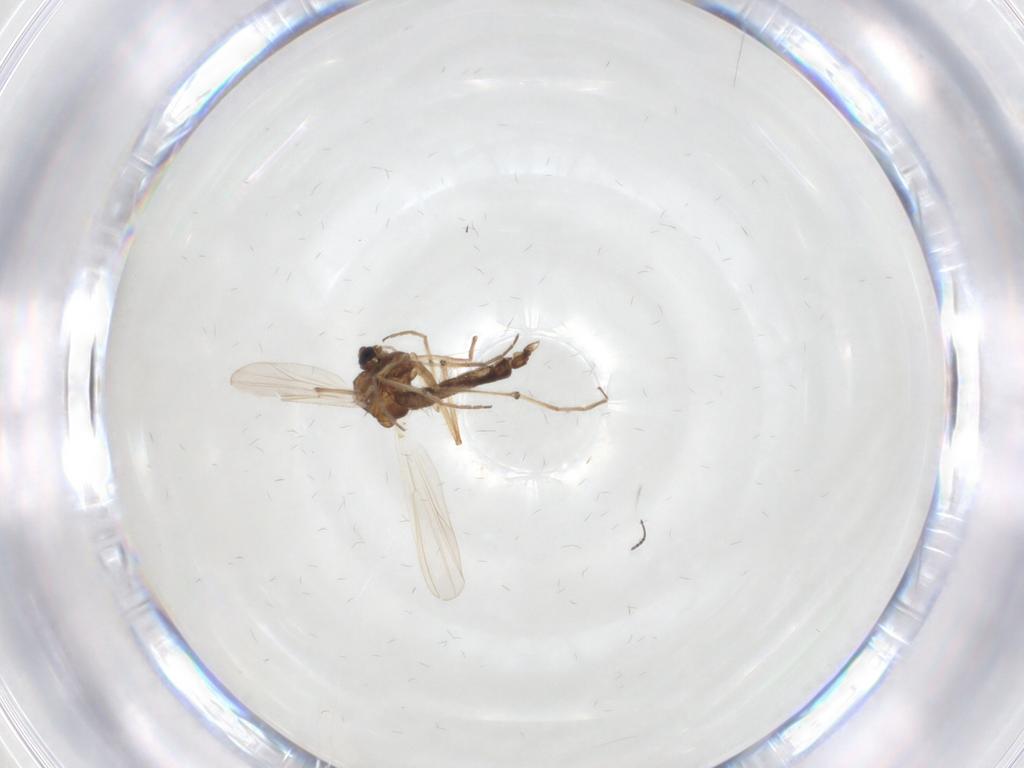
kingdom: Animalia
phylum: Arthropoda
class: Insecta
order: Diptera
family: Chironomidae
